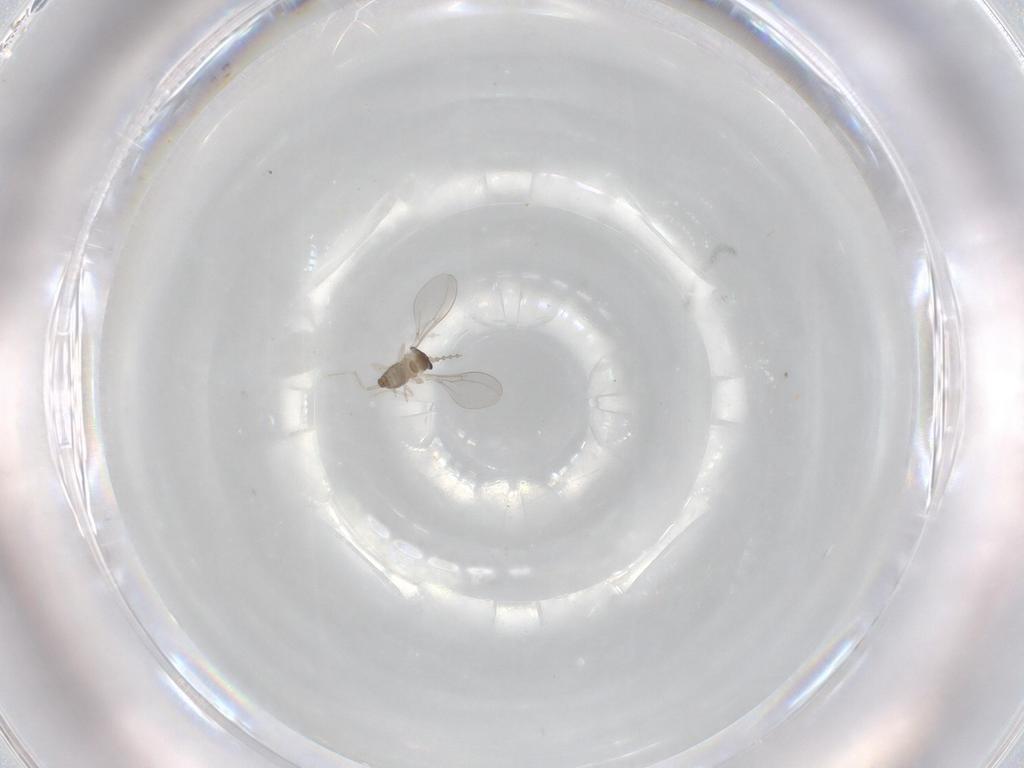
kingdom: Animalia
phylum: Arthropoda
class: Insecta
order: Diptera
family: Cecidomyiidae
